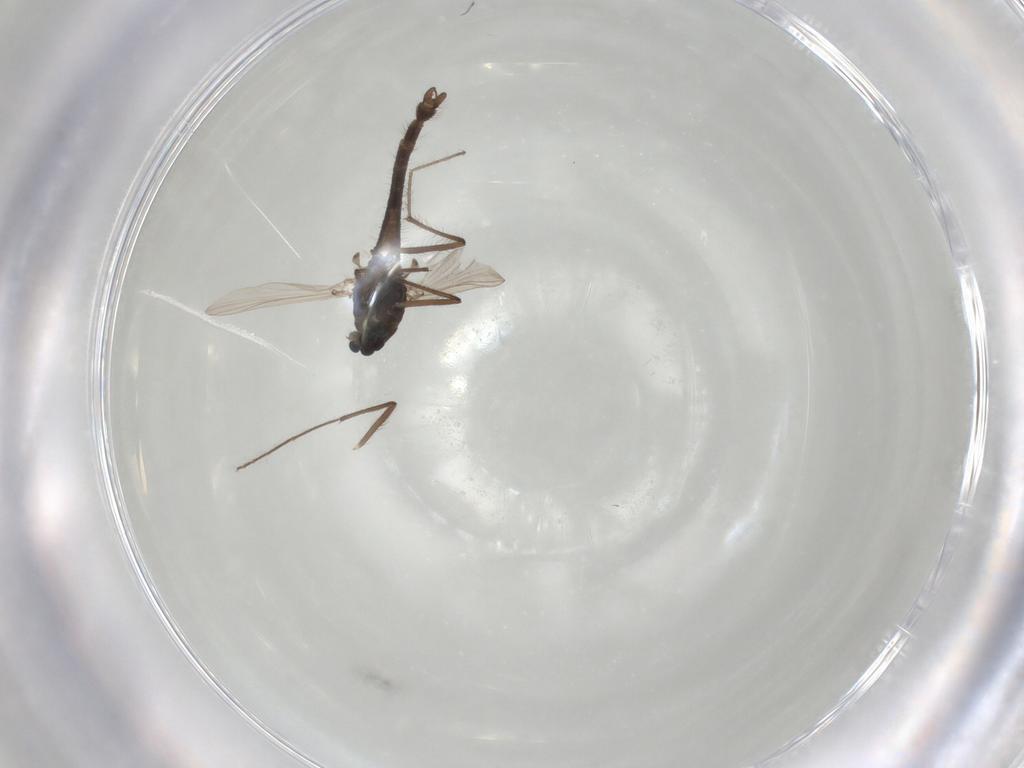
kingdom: Animalia
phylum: Arthropoda
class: Insecta
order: Diptera
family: Chironomidae
